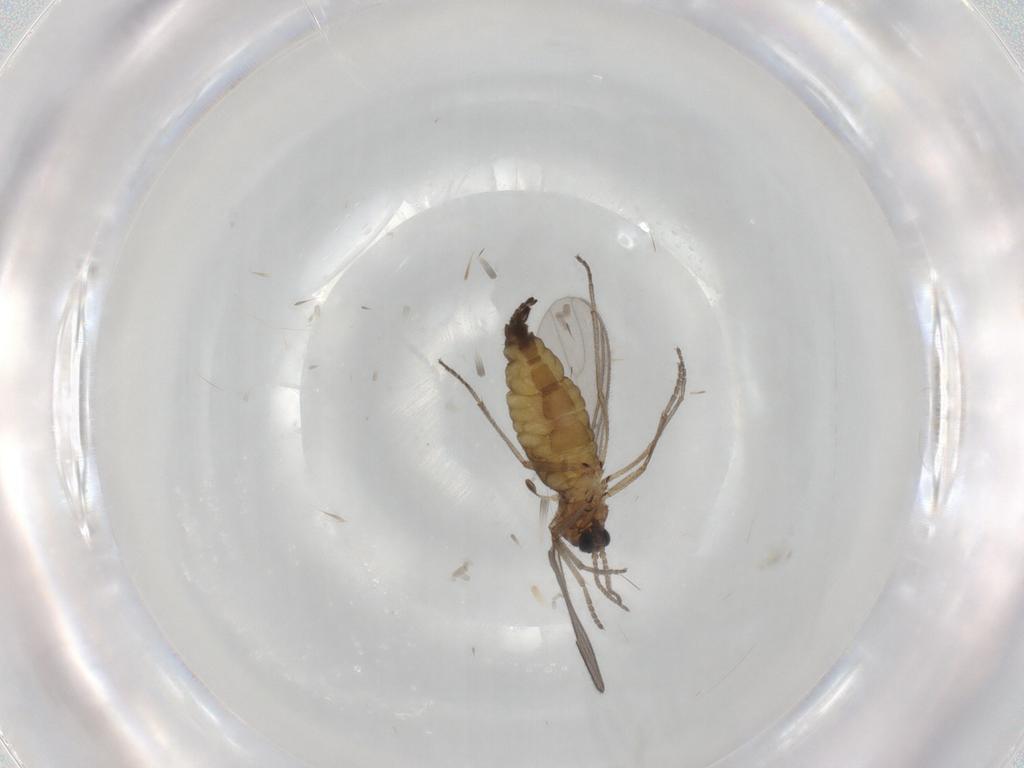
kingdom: Animalia
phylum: Arthropoda
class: Insecta
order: Diptera
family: Sciaridae
